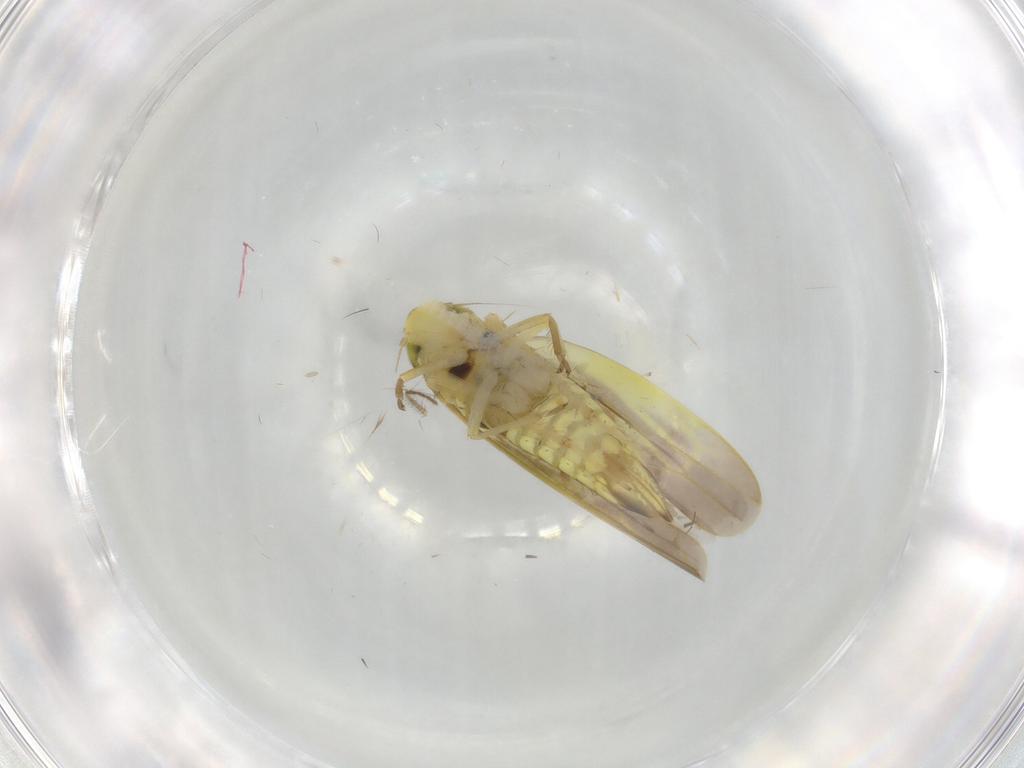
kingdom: Animalia
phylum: Arthropoda
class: Insecta
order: Hemiptera
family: Cicadellidae
